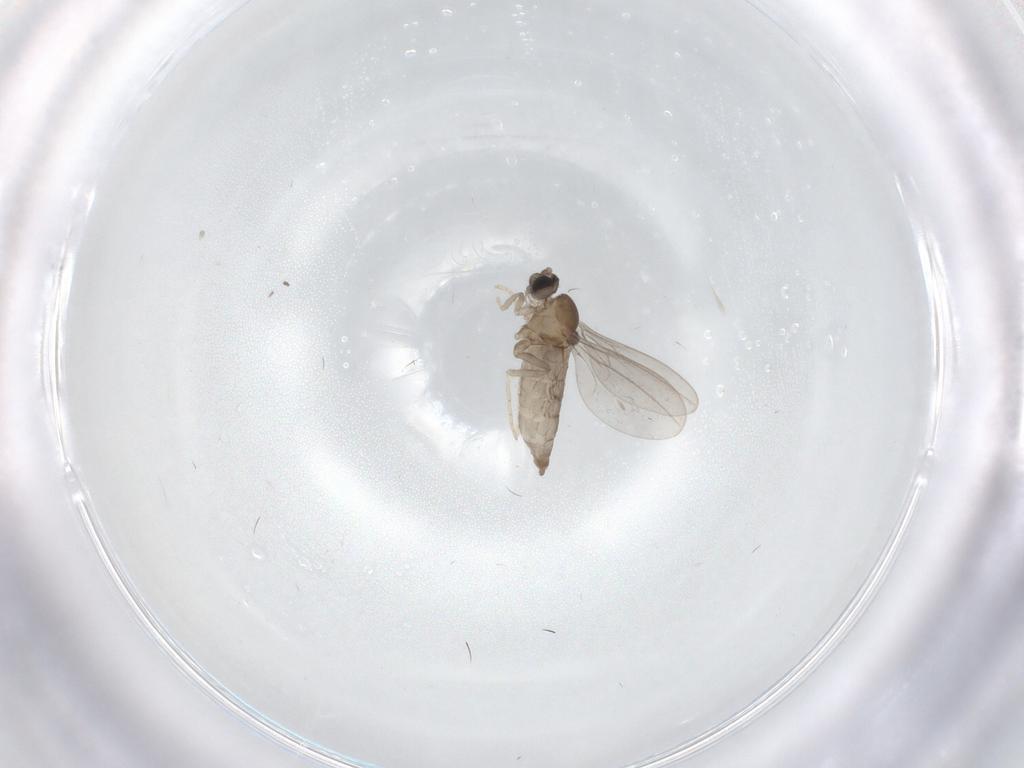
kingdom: Animalia
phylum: Arthropoda
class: Insecta
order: Diptera
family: Cecidomyiidae
